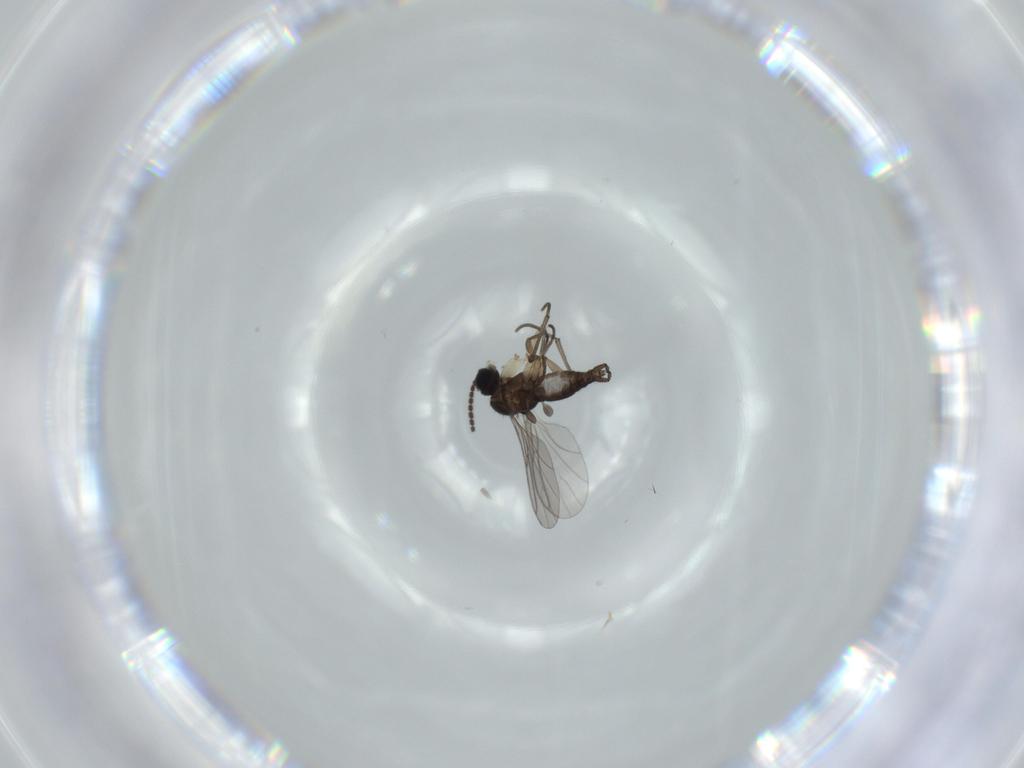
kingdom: Animalia
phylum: Arthropoda
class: Insecta
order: Diptera
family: Sciaridae
